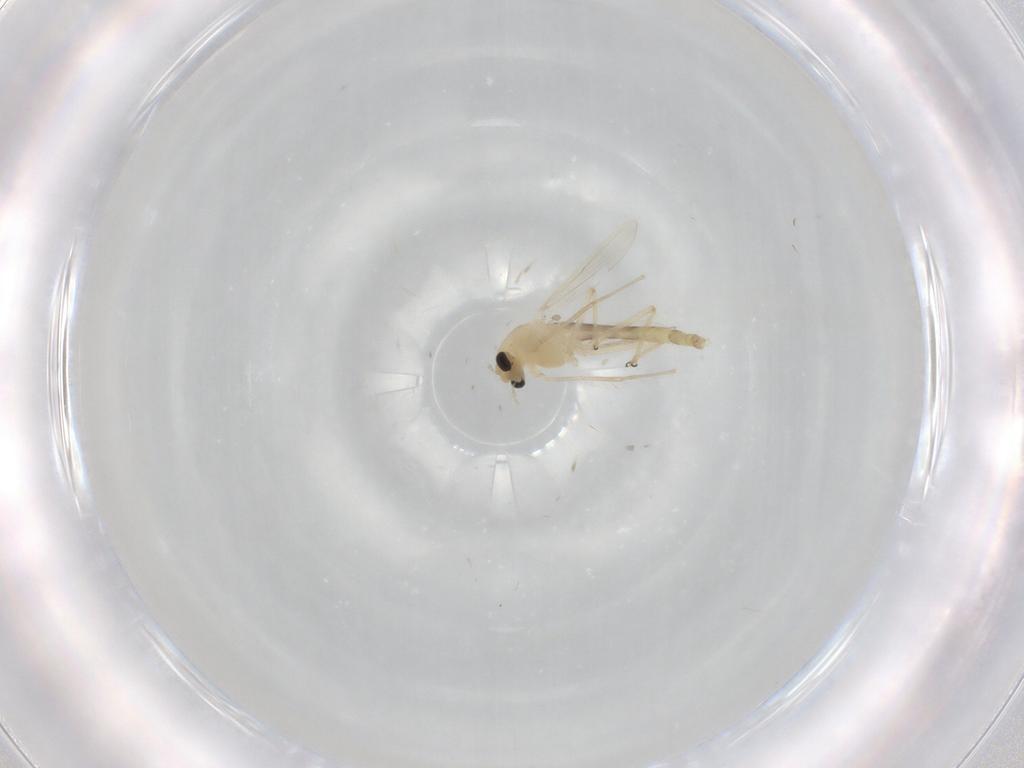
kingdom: Animalia
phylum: Arthropoda
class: Insecta
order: Diptera
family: Chironomidae
